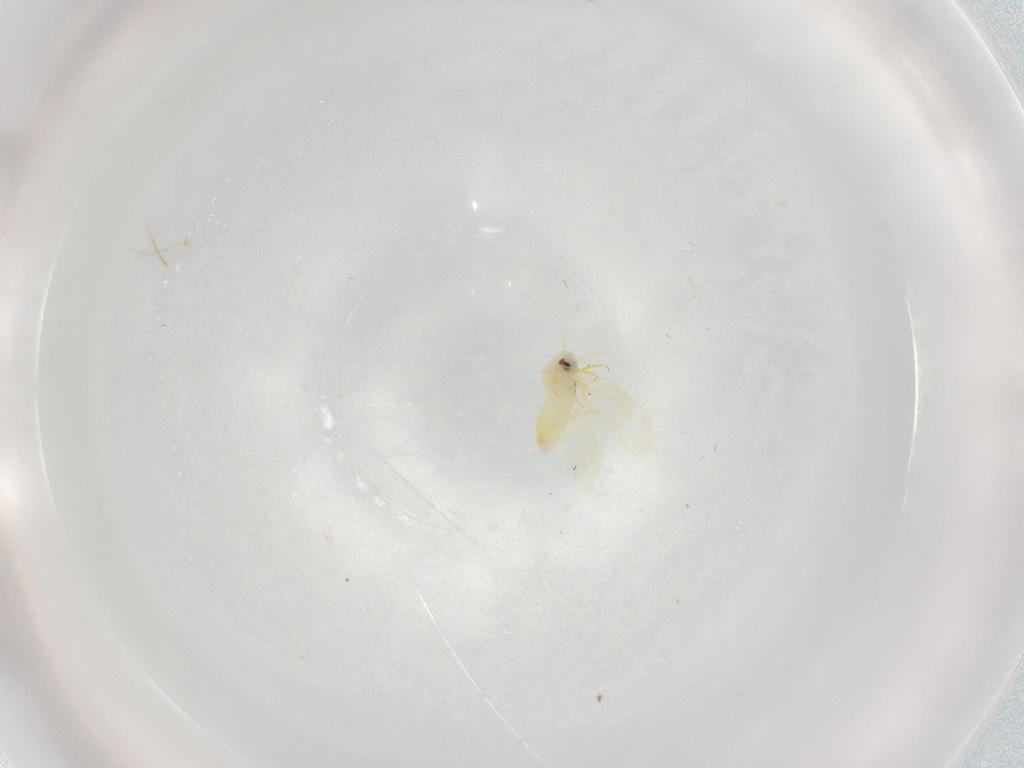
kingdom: Animalia
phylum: Arthropoda
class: Insecta
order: Hemiptera
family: Aleyrodidae
